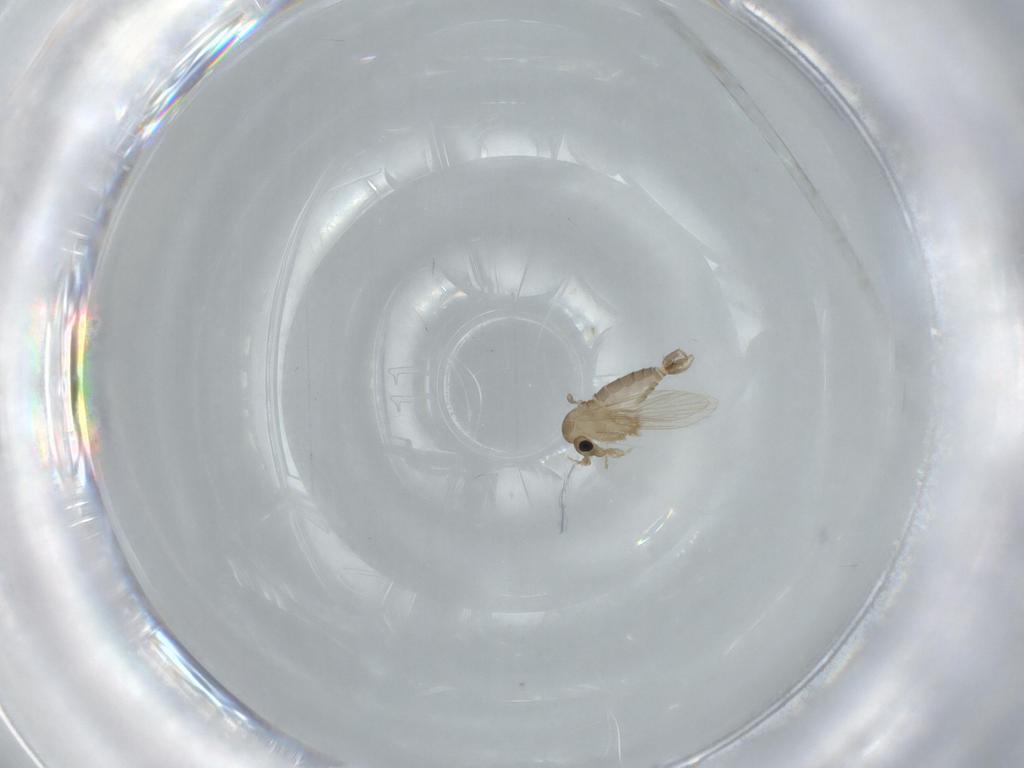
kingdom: Animalia
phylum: Arthropoda
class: Insecta
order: Diptera
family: Psychodidae
